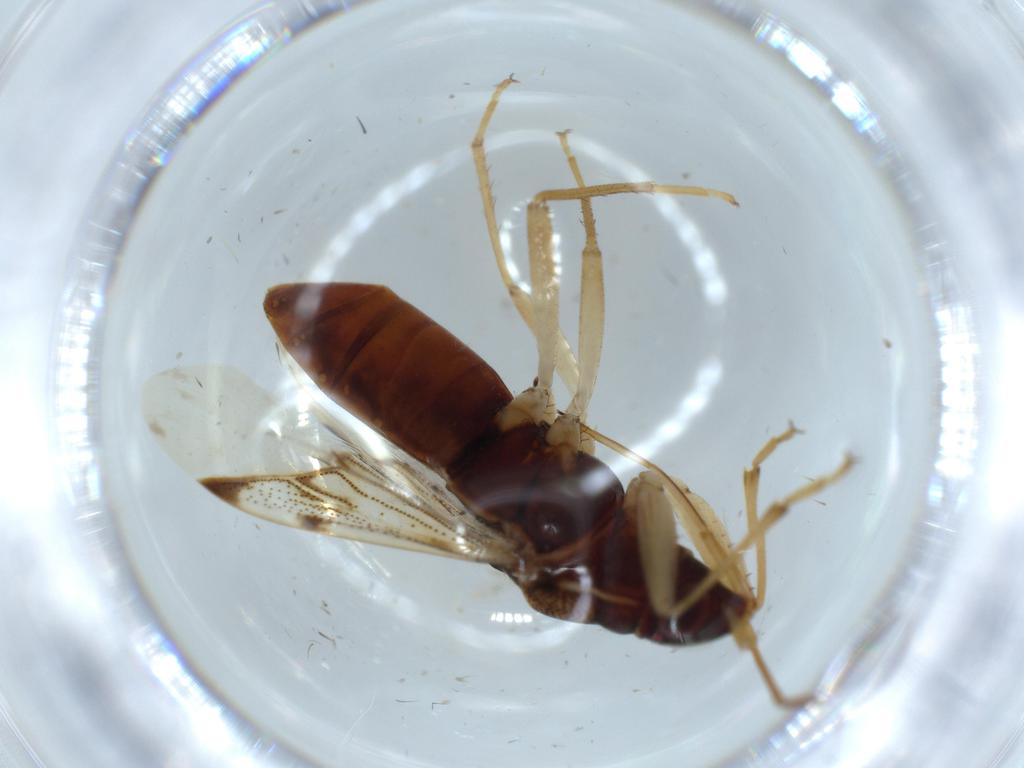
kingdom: Animalia
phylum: Arthropoda
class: Insecta
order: Hemiptera
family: Rhyparochromidae
